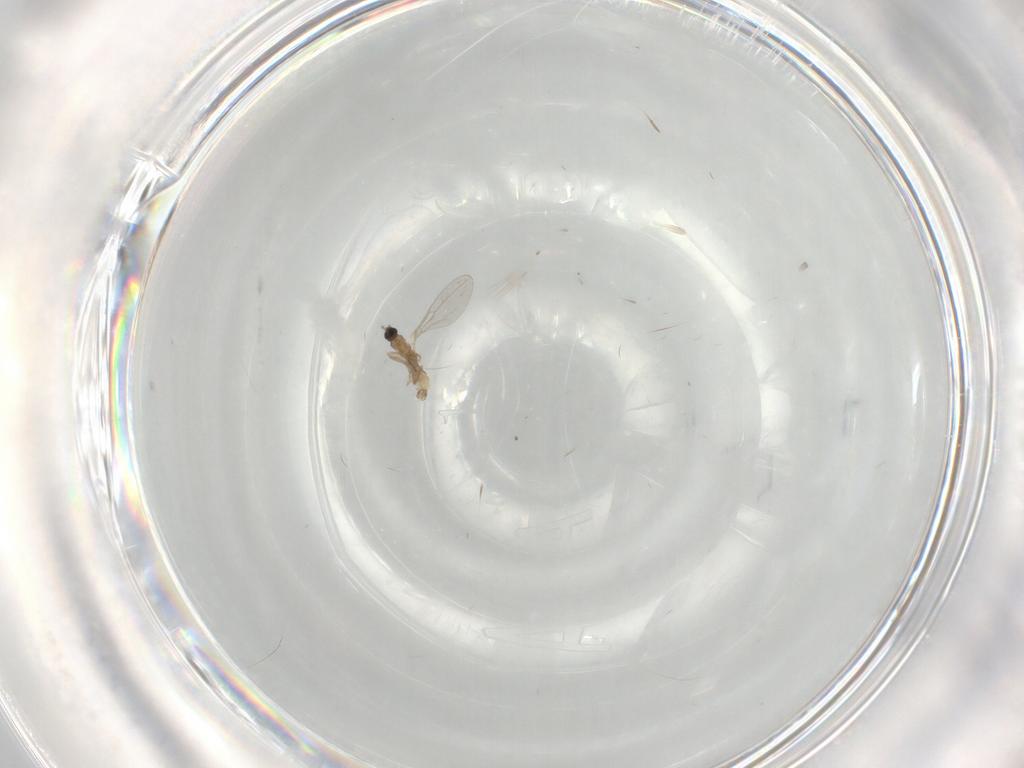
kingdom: Animalia
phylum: Arthropoda
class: Insecta
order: Diptera
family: Cecidomyiidae
